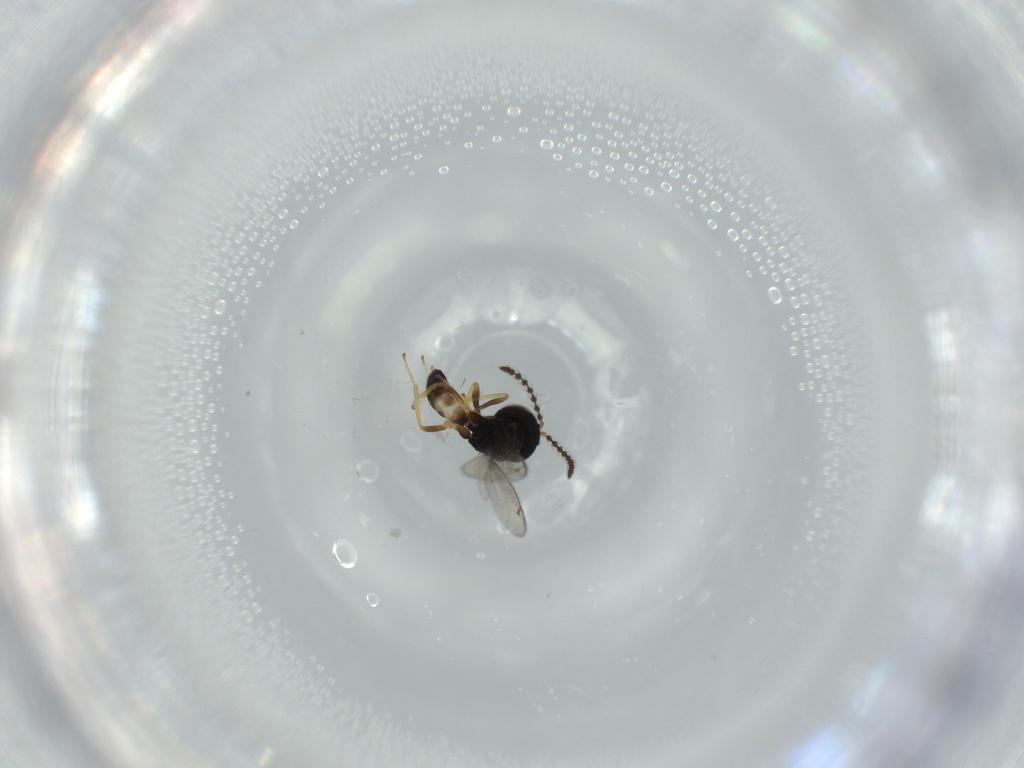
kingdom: Animalia
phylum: Arthropoda
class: Insecta
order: Hymenoptera
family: Pteromalidae
